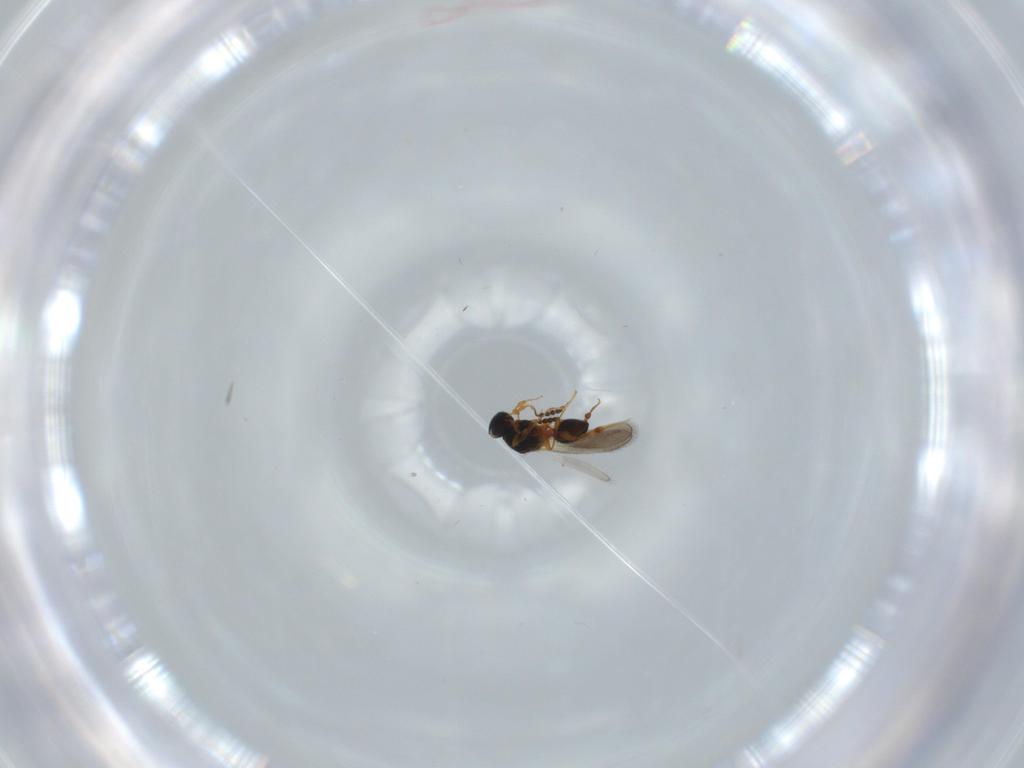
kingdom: Animalia
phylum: Arthropoda
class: Insecta
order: Hymenoptera
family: Platygastridae
